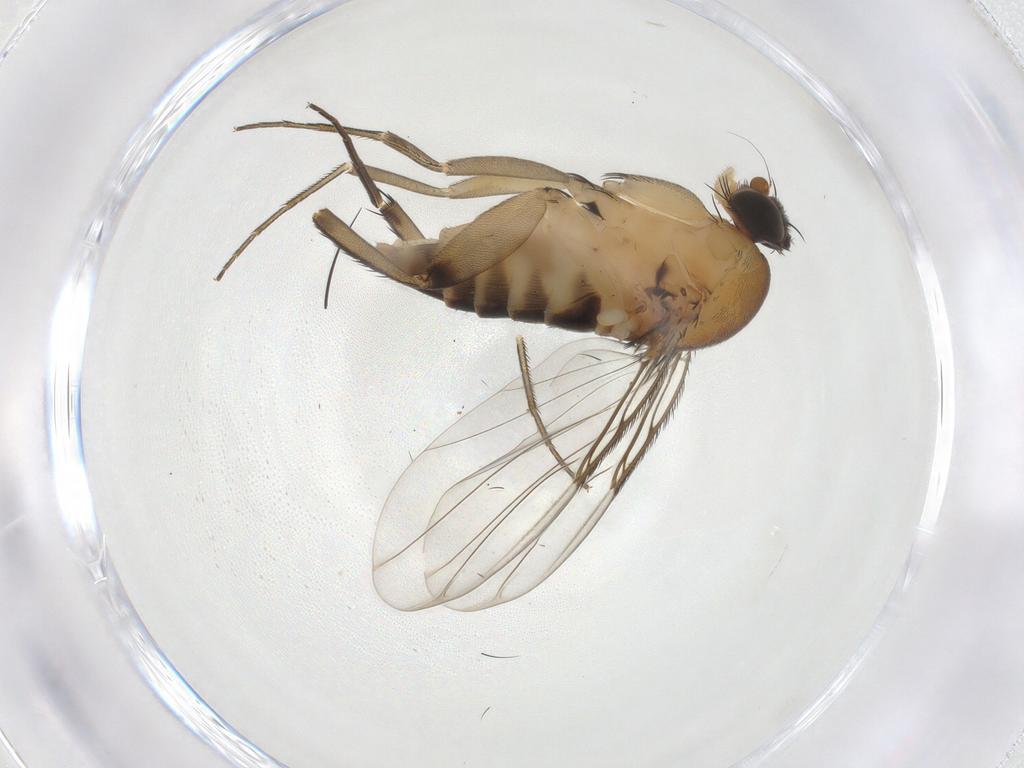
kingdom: Animalia
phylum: Arthropoda
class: Insecta
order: Diptera
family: Phoridae
